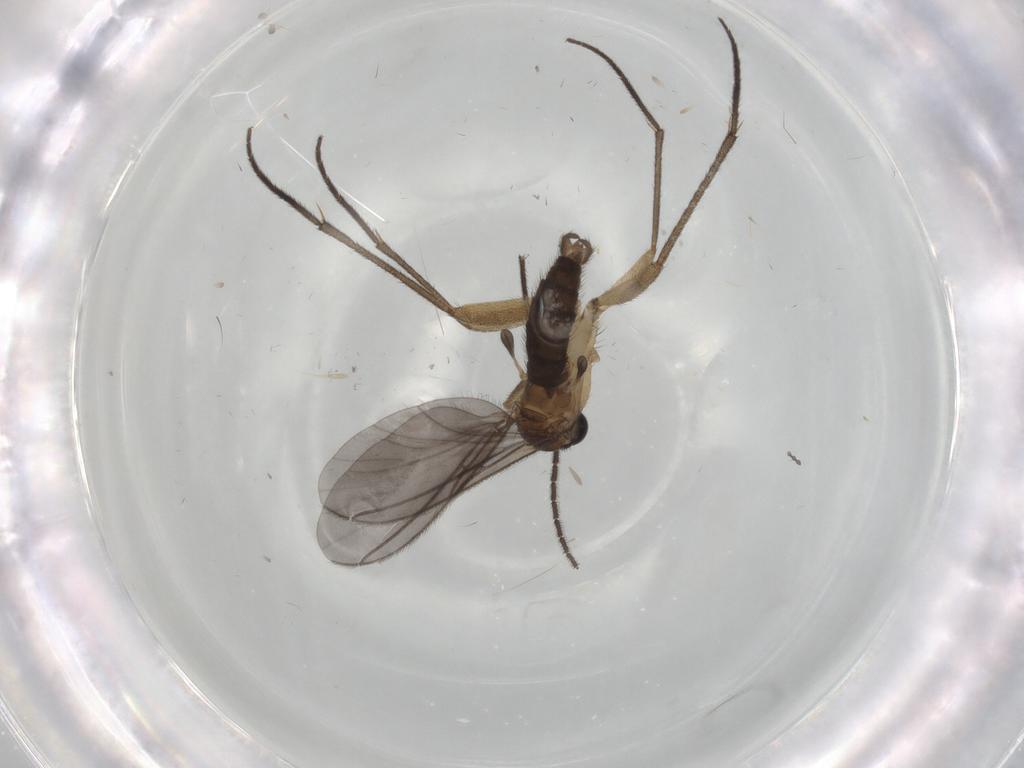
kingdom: Animalia
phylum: Arthropoda
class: Insecta
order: Diptera
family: Cecidomyiidae
